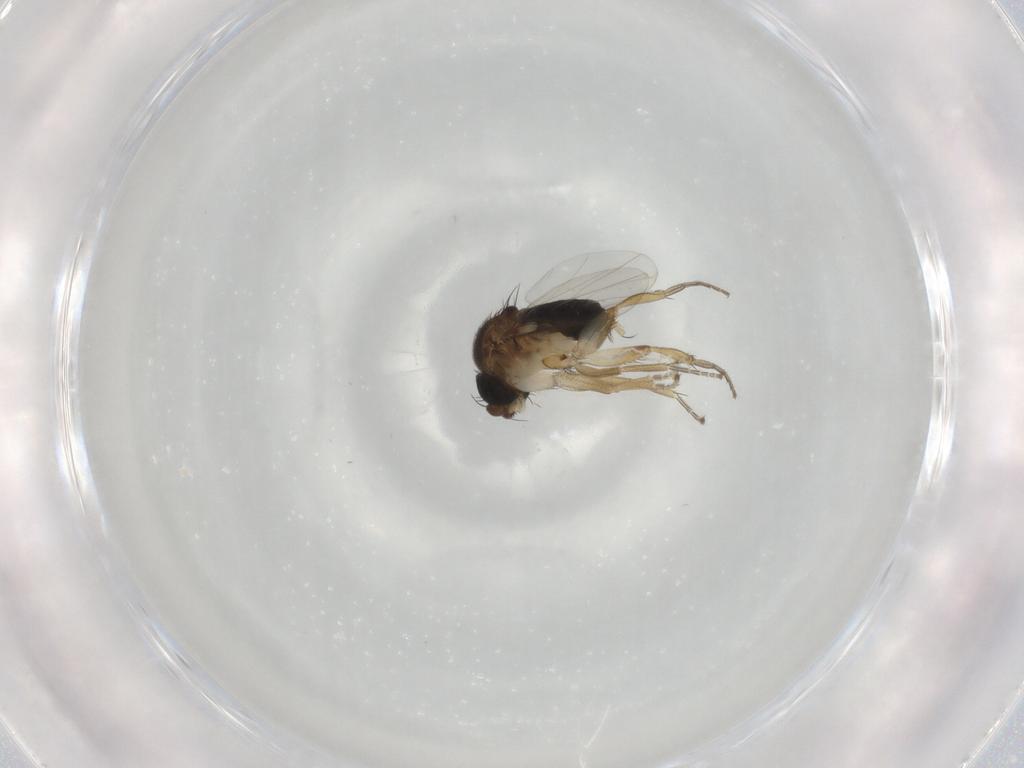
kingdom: Animalia
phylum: Arthropoda
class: Insecta
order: Diptera
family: Phoridae
